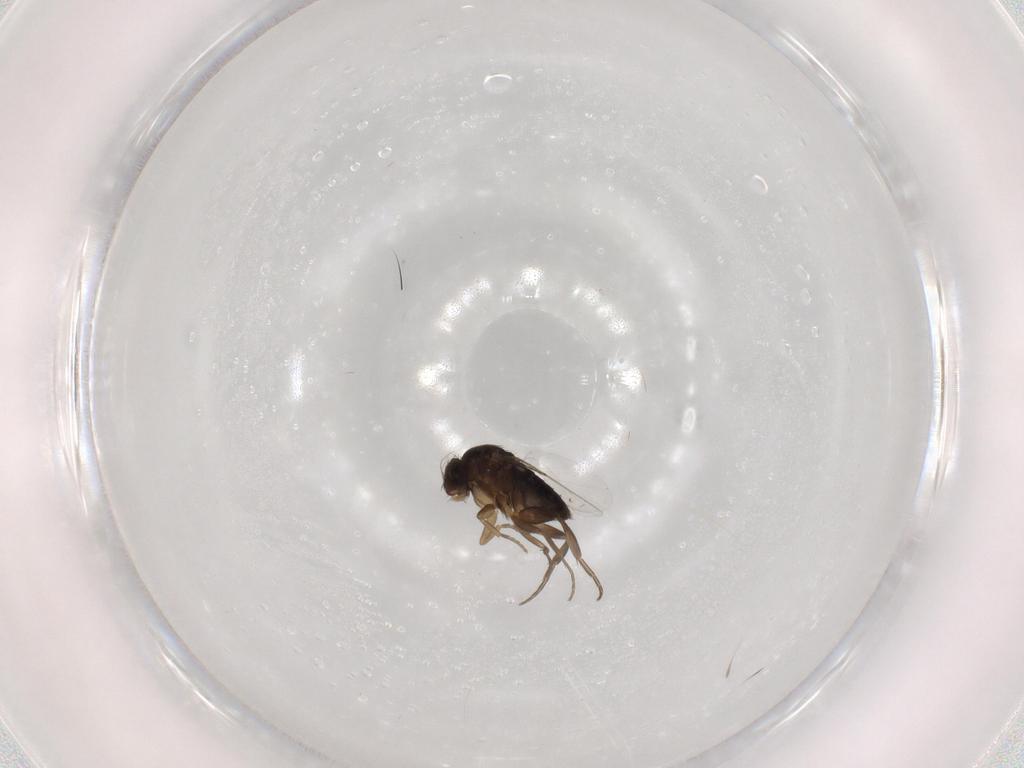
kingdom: Animalia
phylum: Arthropoda
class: Insecta
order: Diptera
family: Phoridae
